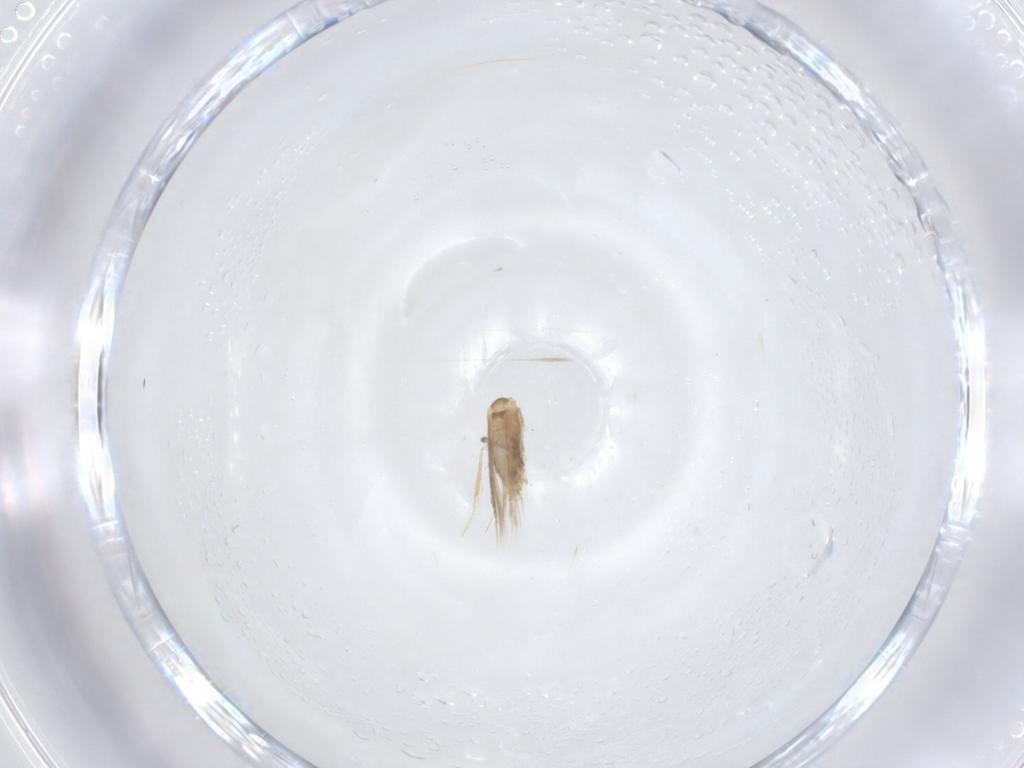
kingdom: Animalia
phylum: Arthropoda
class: Insecta
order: Lepidoptera
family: Nepticulidae
